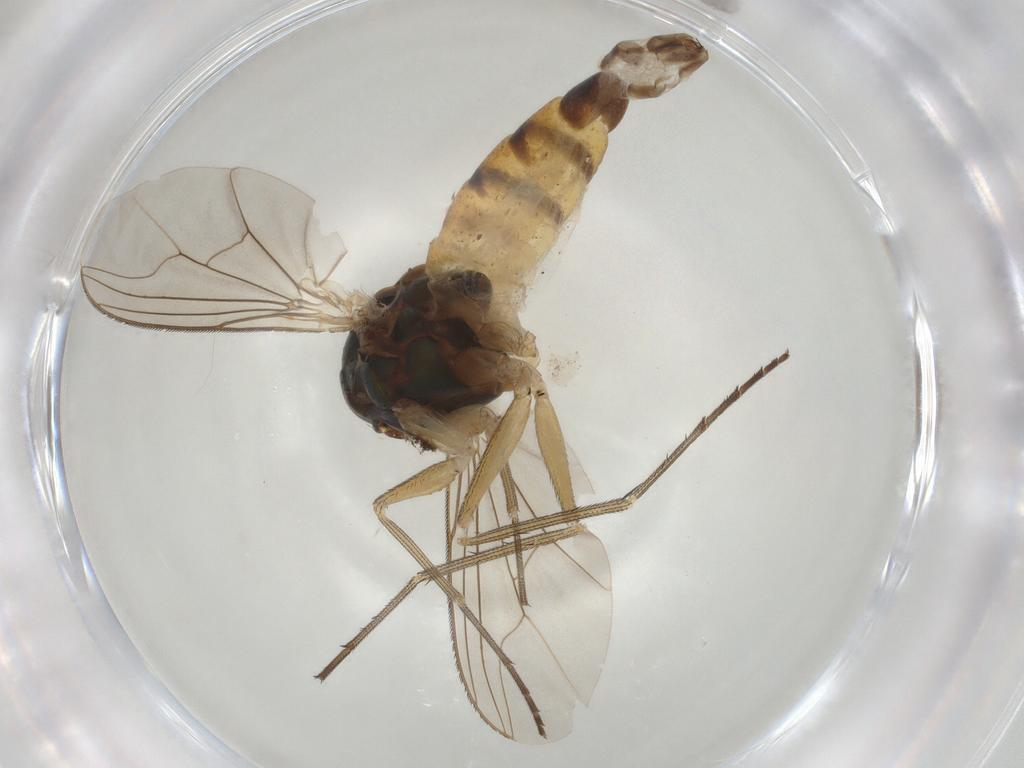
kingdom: Animalia
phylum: Arthropoda
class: Insecta
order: Diptera
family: Dolichopodidae
